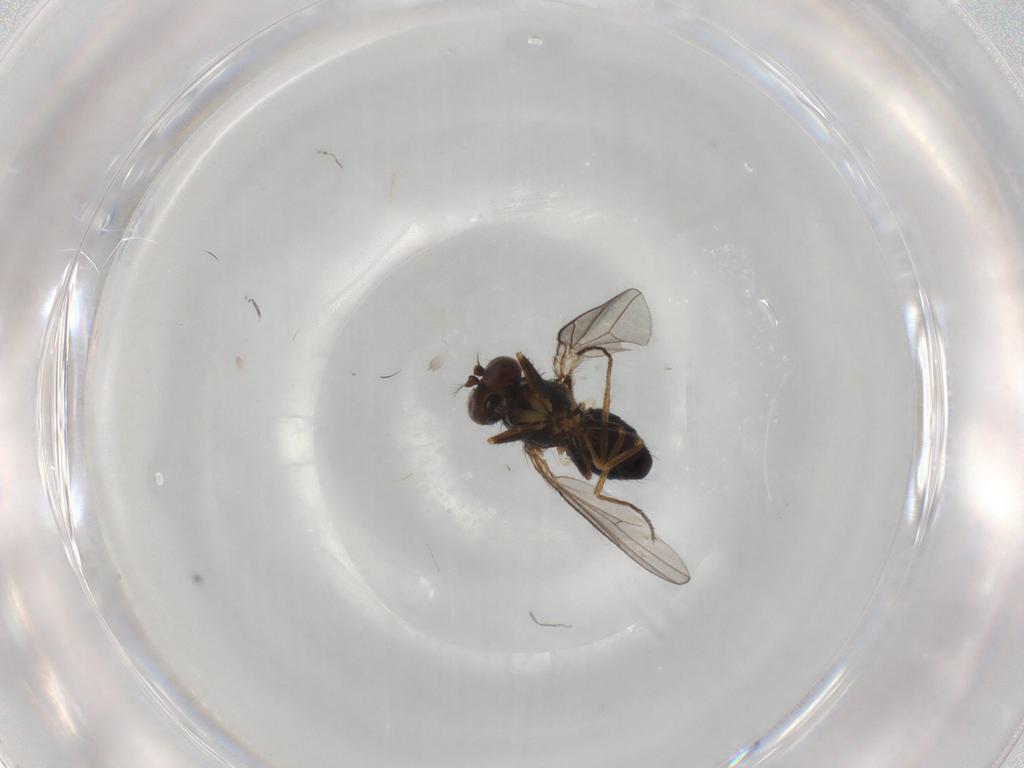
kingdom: Animalia
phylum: Arthropoda
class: Insecta
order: Diptera
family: Ephydridae
